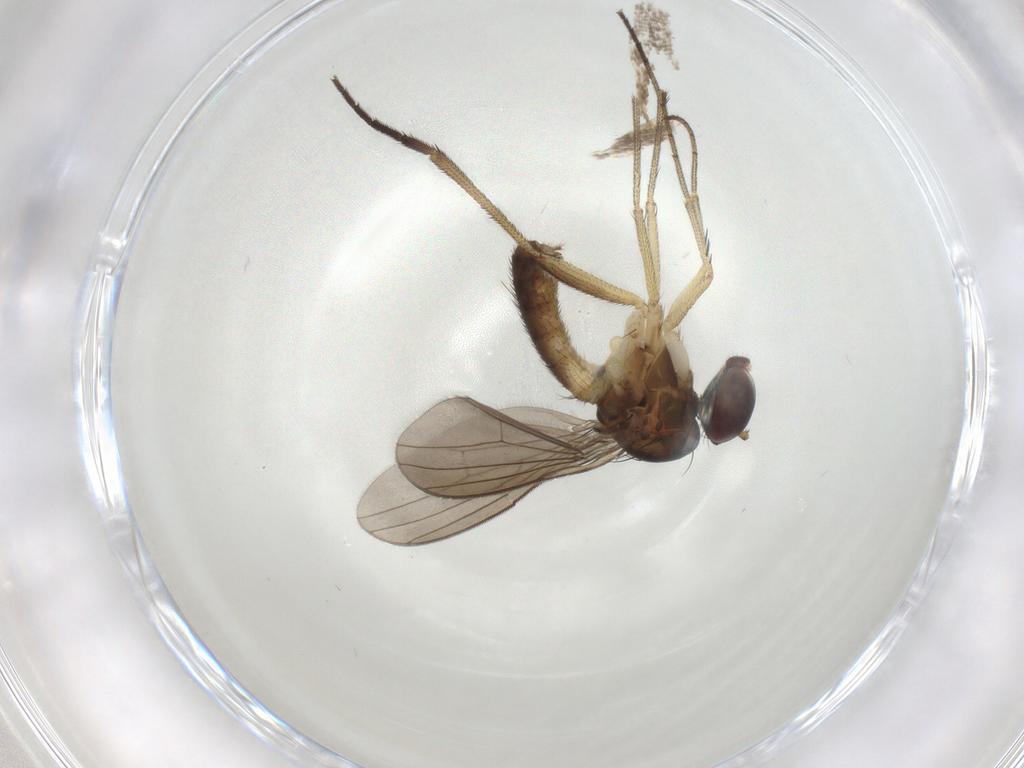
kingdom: Animalia
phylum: Arthropoda
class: Insecta
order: Diptera
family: Dolichopodidae
